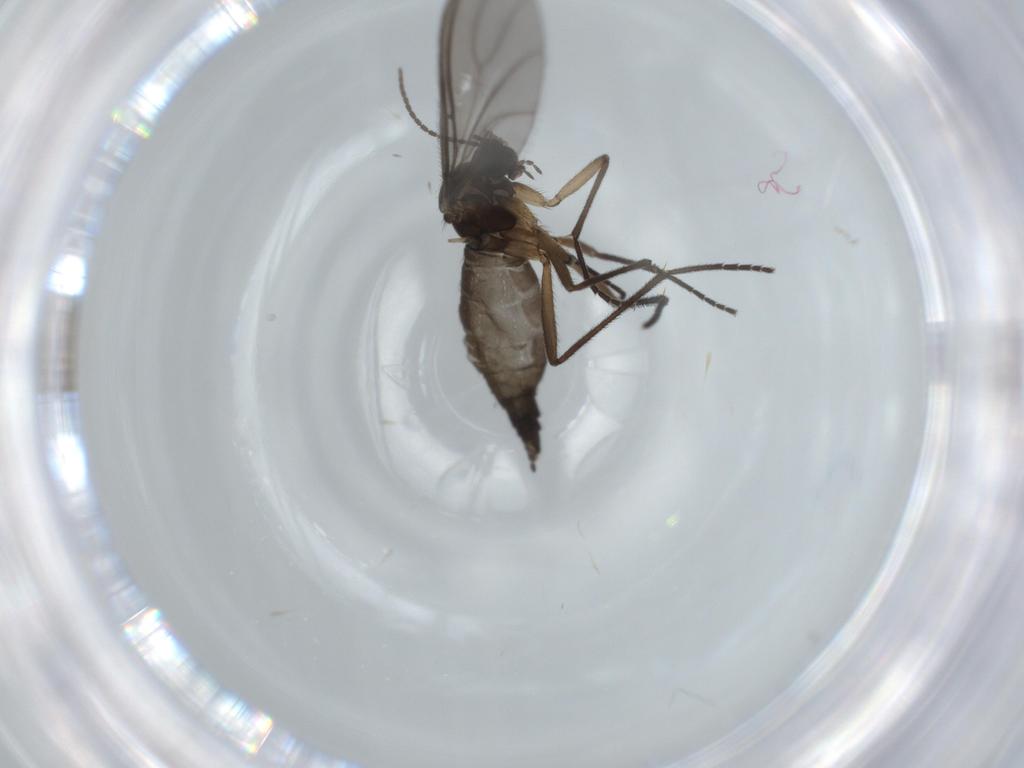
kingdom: Animalia
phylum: Arthropoda
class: Insecta
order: Diptera
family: Sciaridae
